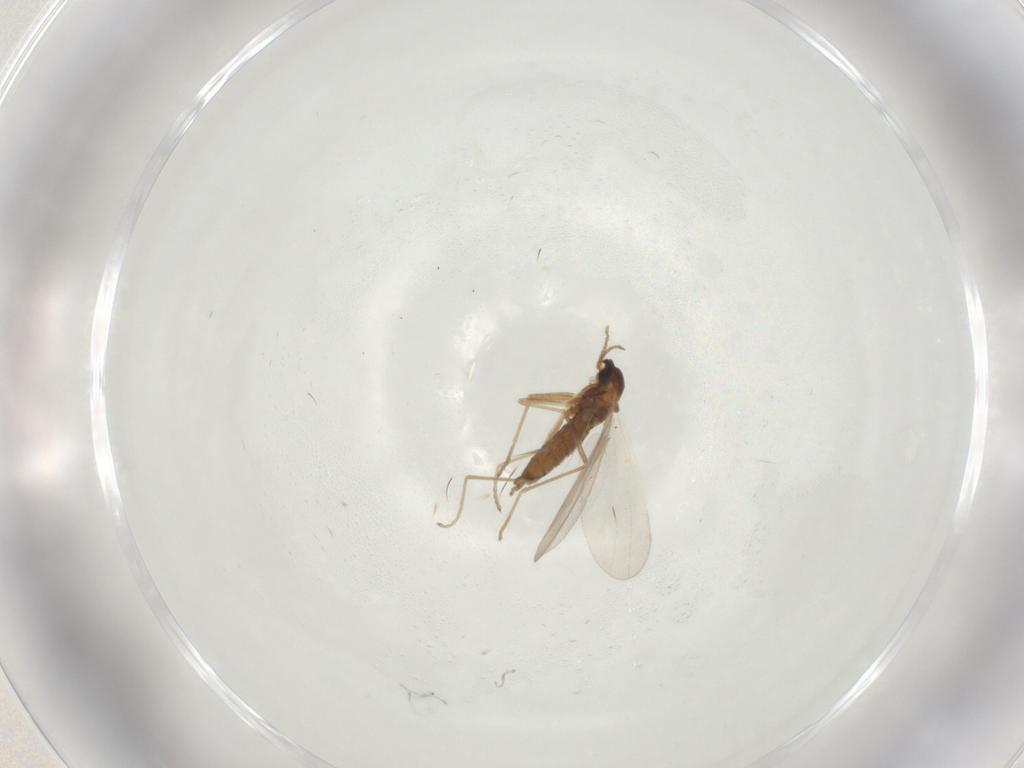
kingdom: Animalia
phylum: Arthropoda
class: Insecta
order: Diptera
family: Cecidomyiidae
